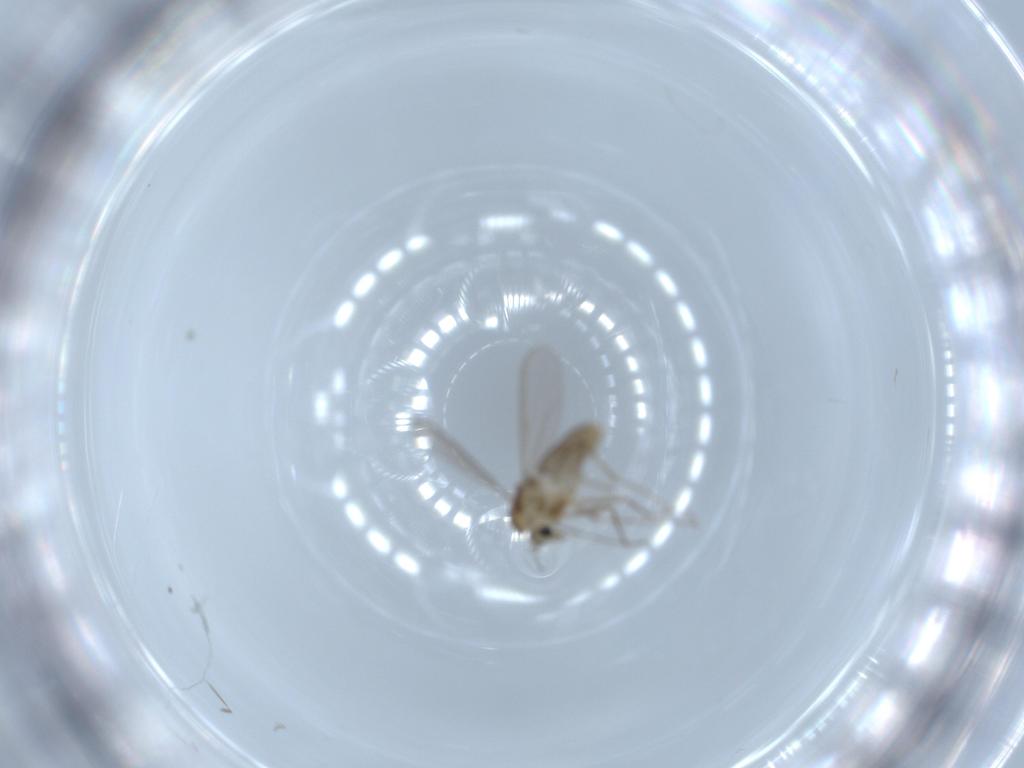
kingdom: Animalia
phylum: Arthropoda
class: Insecta
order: Diptera
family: Chironomidae
